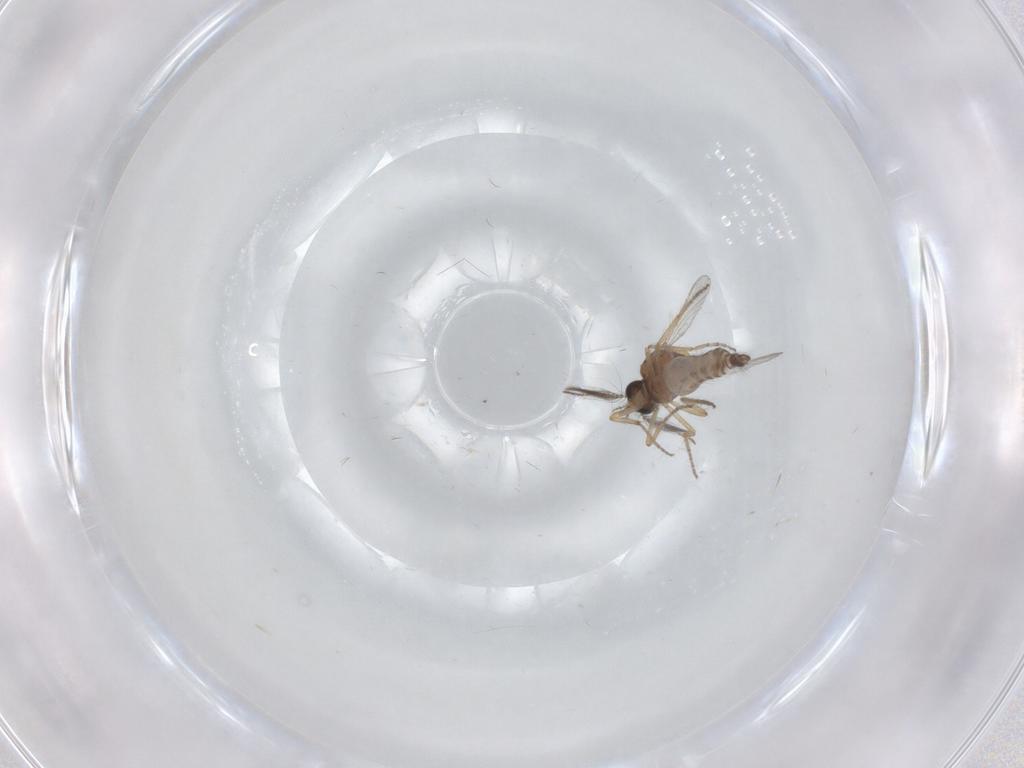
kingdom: Animalia
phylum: Arthropoda
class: Insecta
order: Diptera
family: Ceratopogonidae
